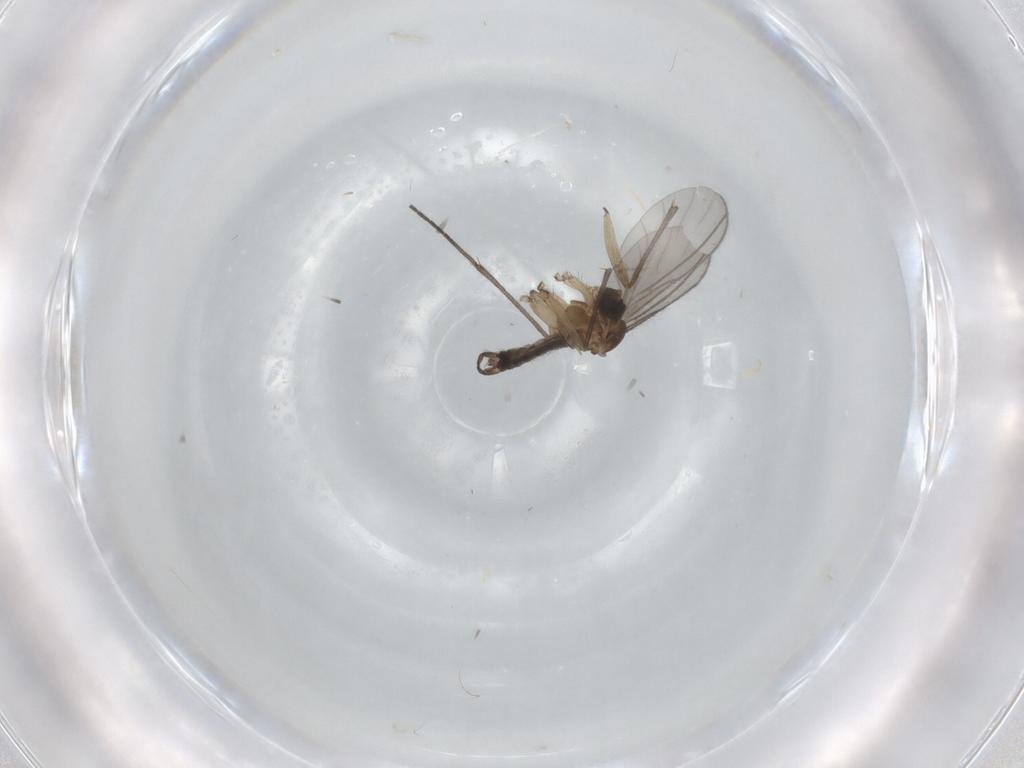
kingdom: Animalia
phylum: Arthropoda
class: Insecta
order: Diptera
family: Sciaridae
